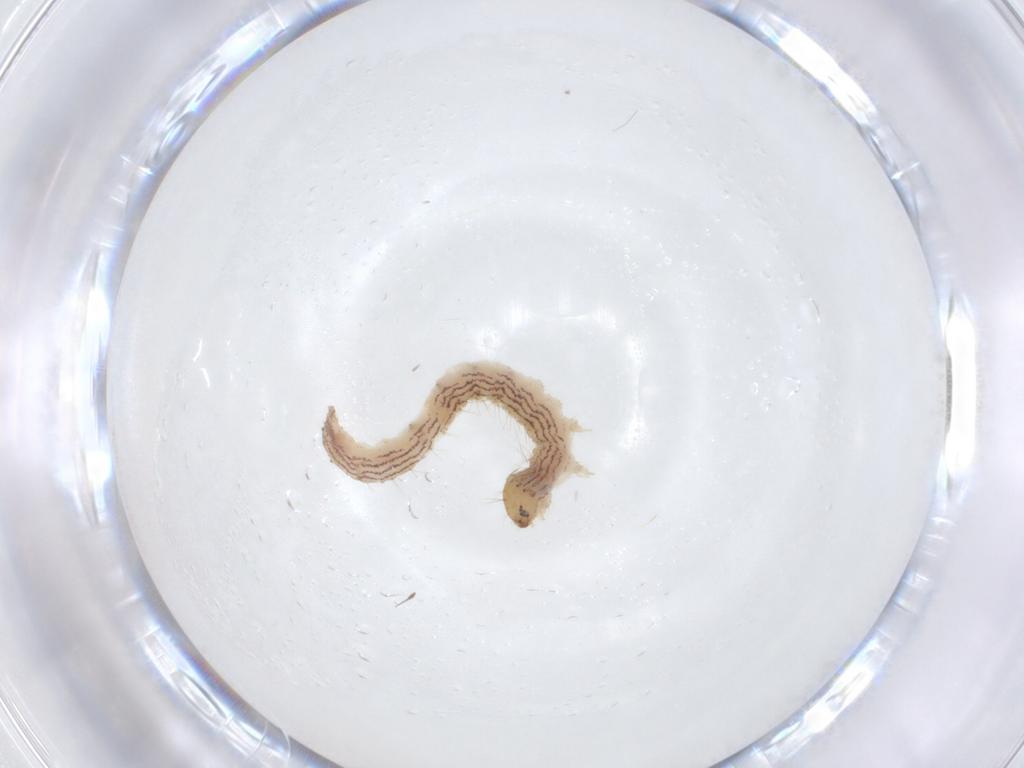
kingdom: Animalia
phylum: Arthropoda
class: Insecta
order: Lepidoptera
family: Pyralidae
